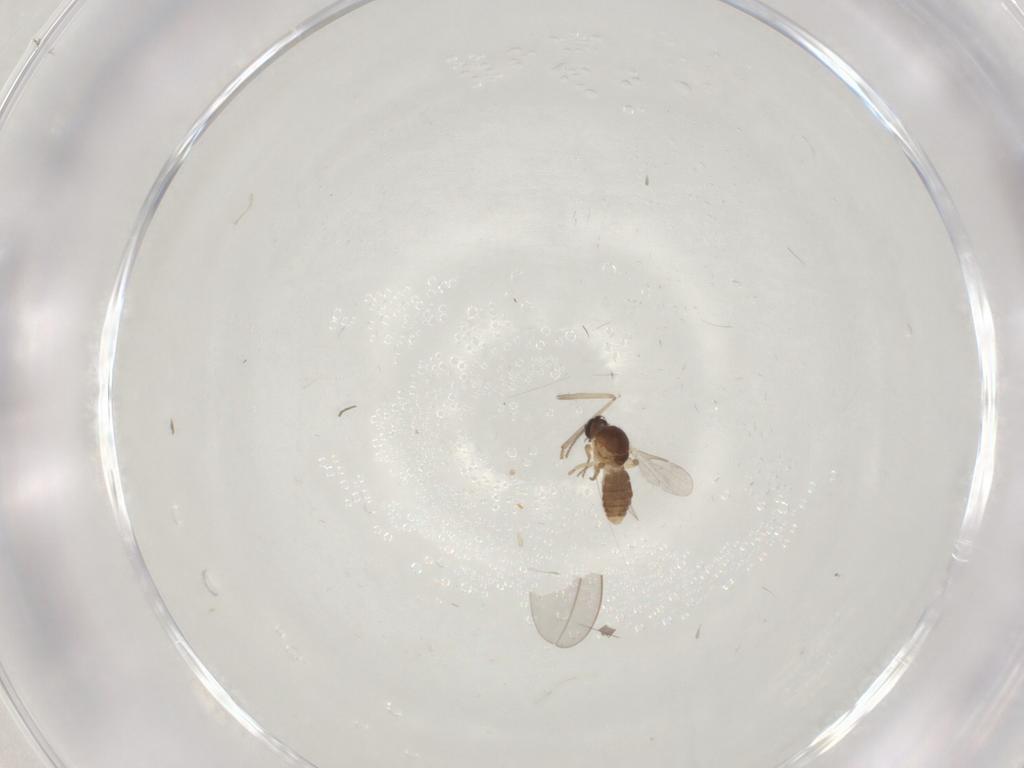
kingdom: Animalia
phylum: Arthropoda
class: Insecta
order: Diptera
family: Ceratopogonidae
